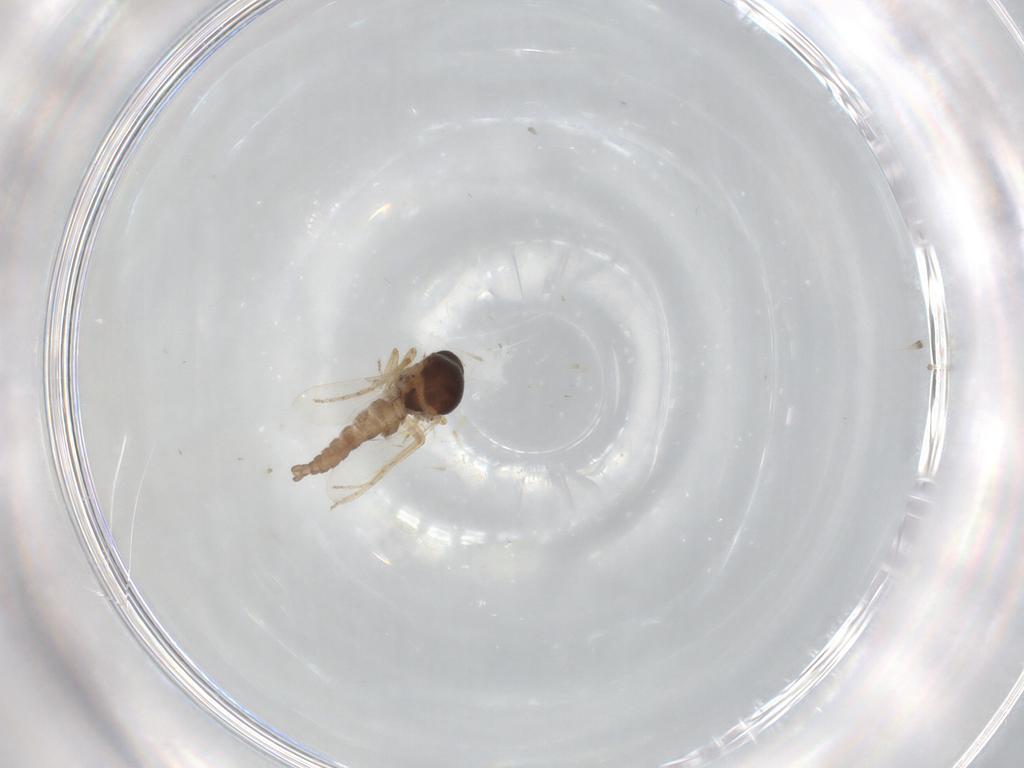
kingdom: Animalia
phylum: Arthropoda
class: Insecta
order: Diptera
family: Ceratopogonidae
